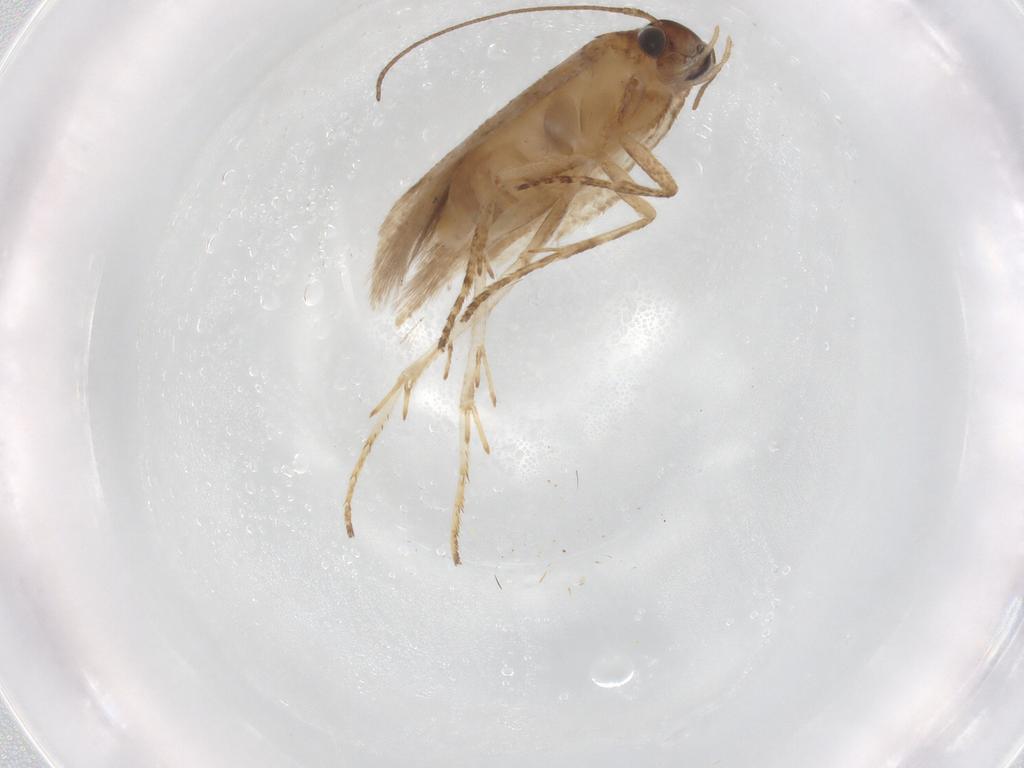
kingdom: Animalia
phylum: Arthropoda
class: Insecta
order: Lepidoptera
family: Gelechiidae
